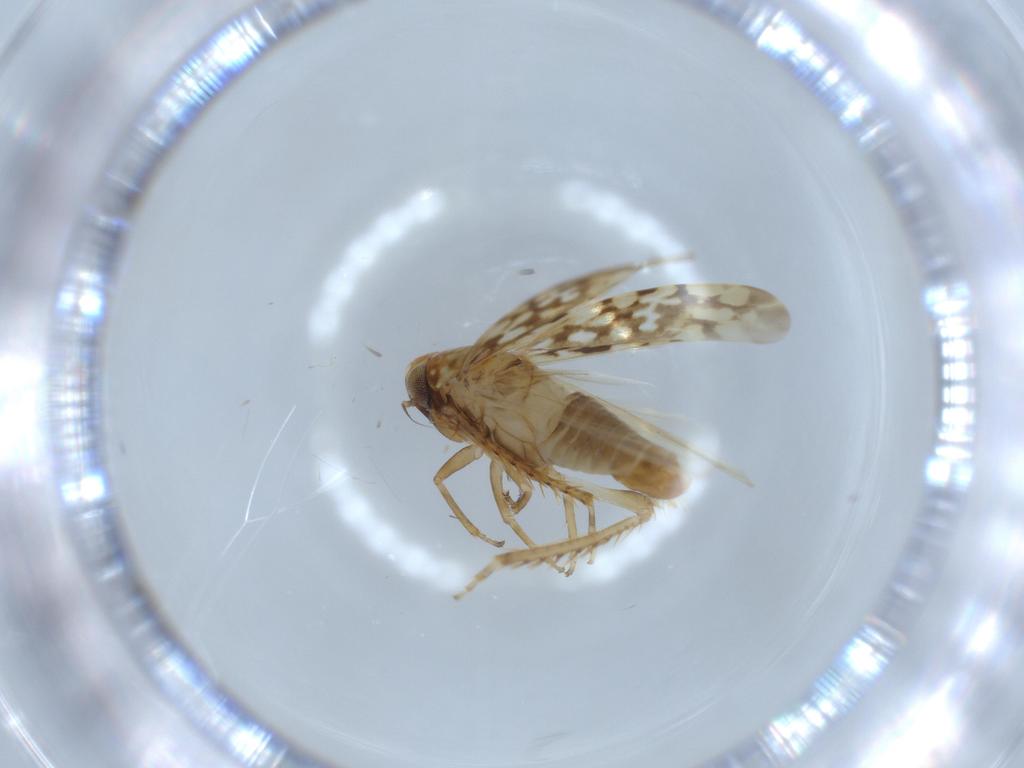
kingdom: Animalia
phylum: Arthropoda
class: Insecta
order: Hemiptera
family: Cicadellidae
